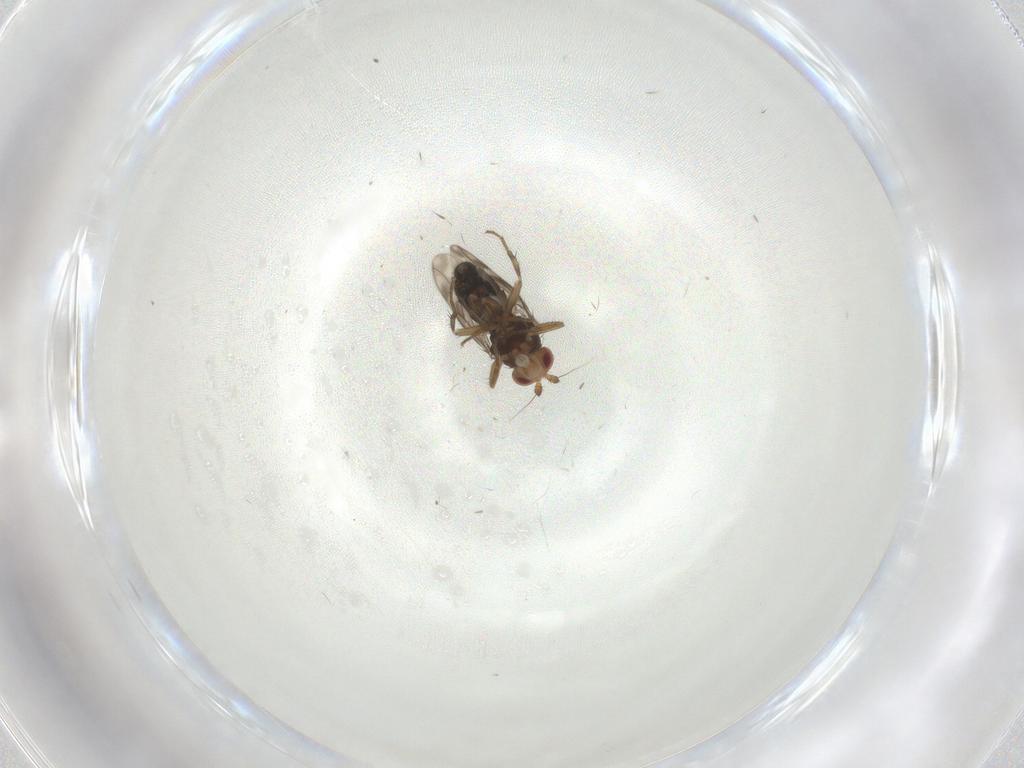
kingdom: Animalia
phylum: Arthropoda
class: Insecta
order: Diptera
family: Sphaeroceridae
